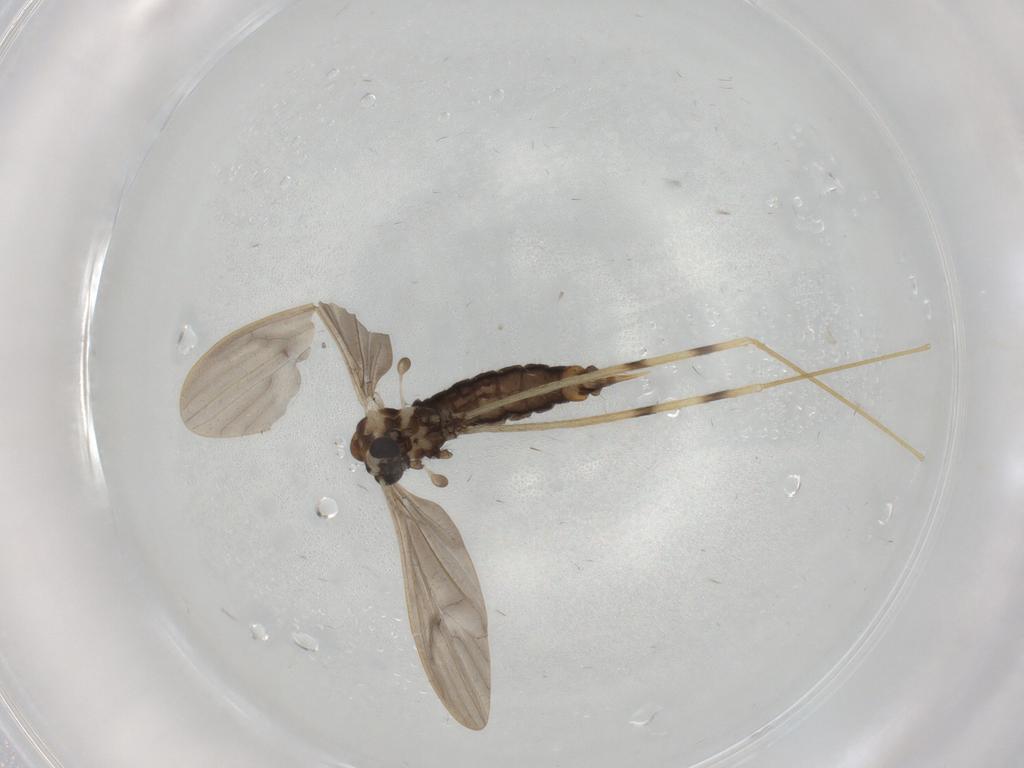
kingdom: Animalia
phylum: Arthropoda
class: Insecta
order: Diptera
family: Limoniidae
